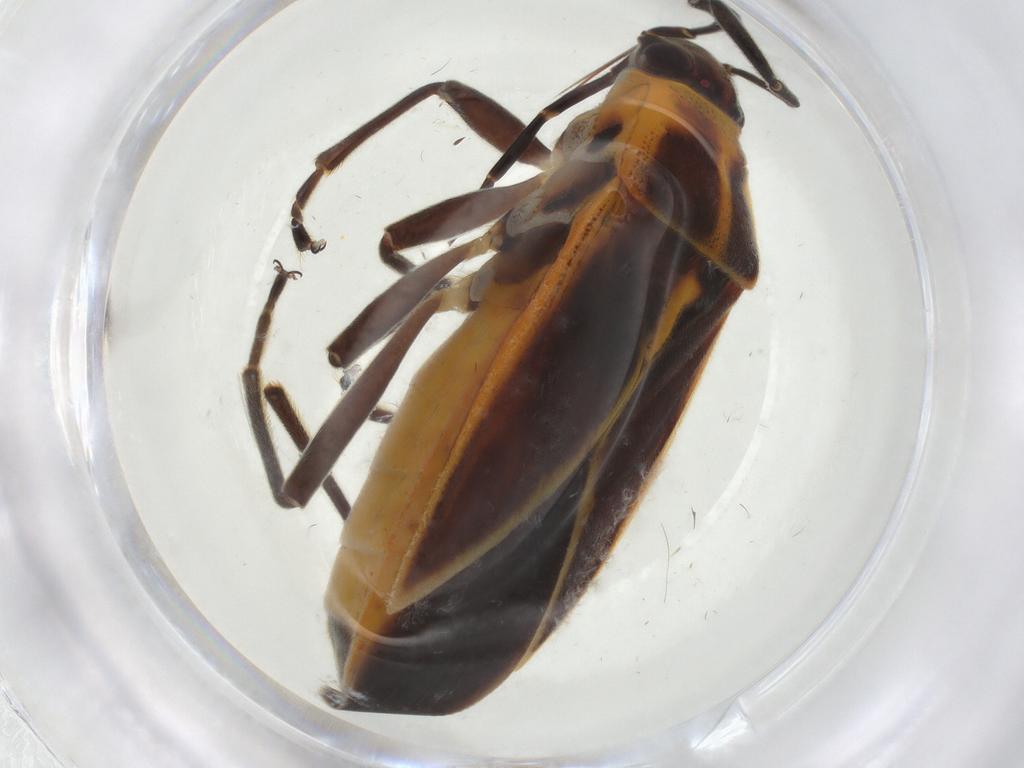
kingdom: Animalia
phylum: Arthropoda
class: Insecta
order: Hemiptera
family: Lygaeidae
